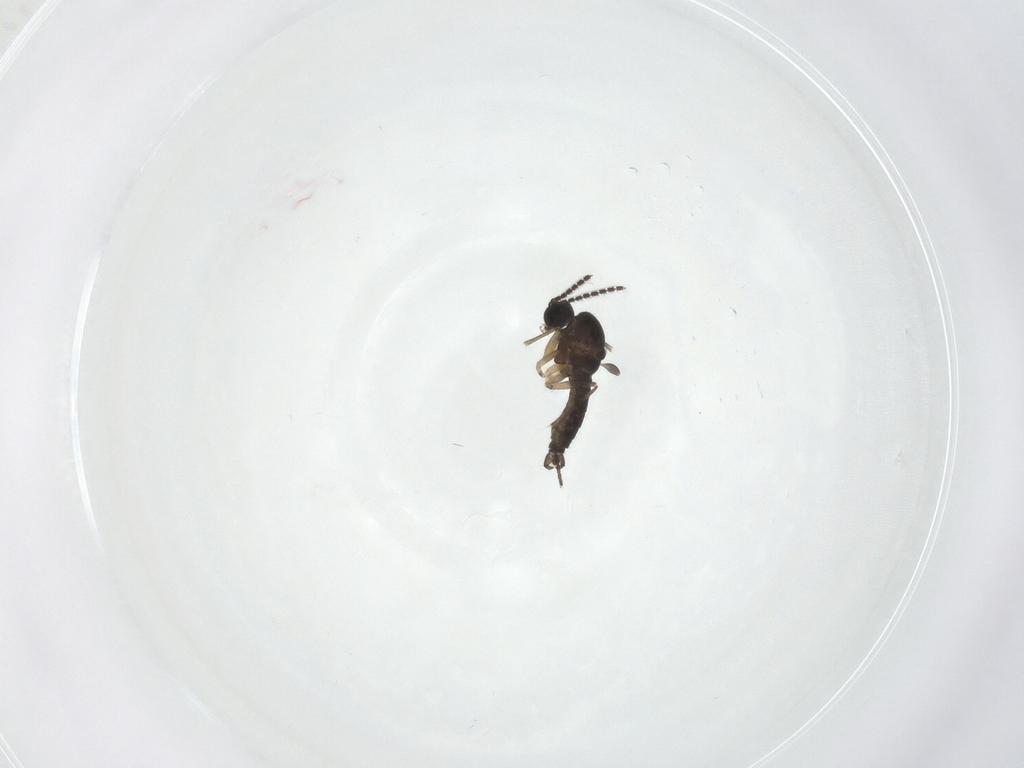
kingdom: Animalia
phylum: Arthropoda
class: Insecta
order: Diptera
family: Sciaridae
